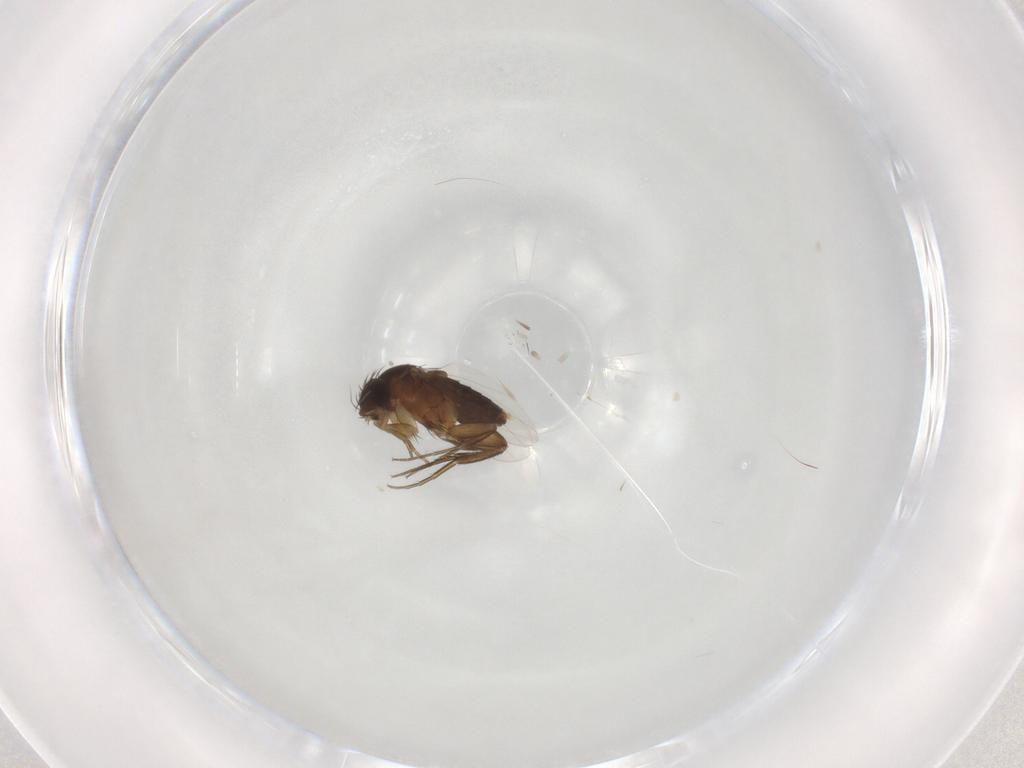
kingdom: Animalia
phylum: Arthropoda
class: Insecta
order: Diptera
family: Phoridae
